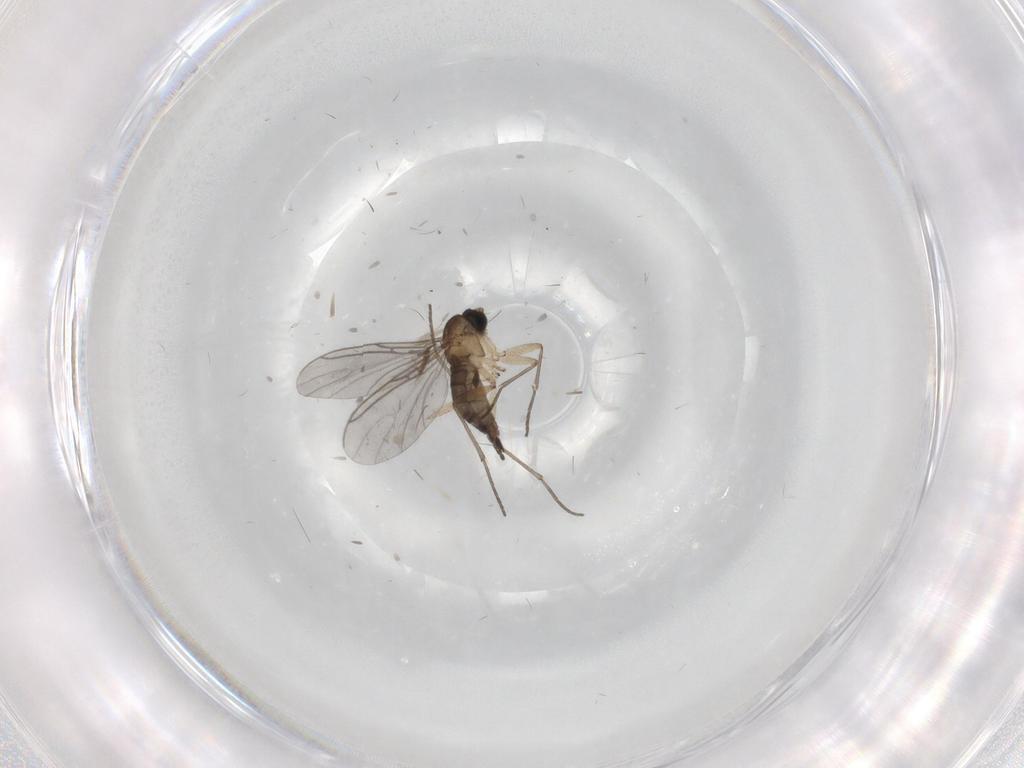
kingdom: Animalia
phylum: Arthropoda
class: Insecta
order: Diptera
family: Sciaridae
